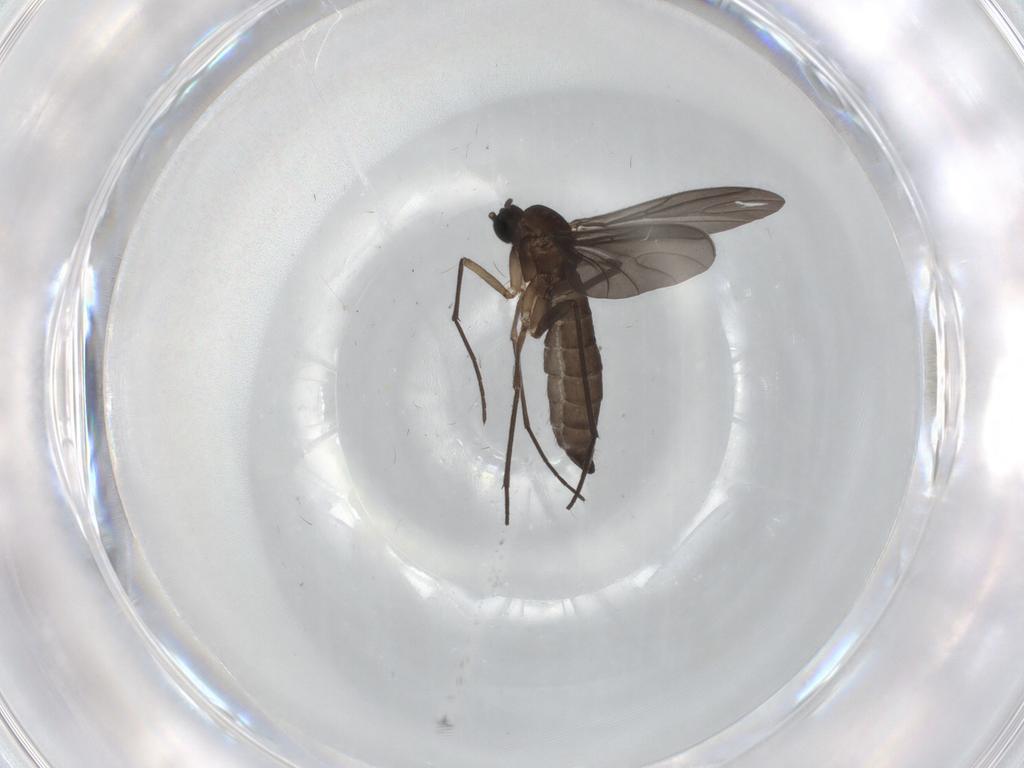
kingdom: Animalia
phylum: Arthropoda
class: Insecta
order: Diptera
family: Cecidomyiidae
